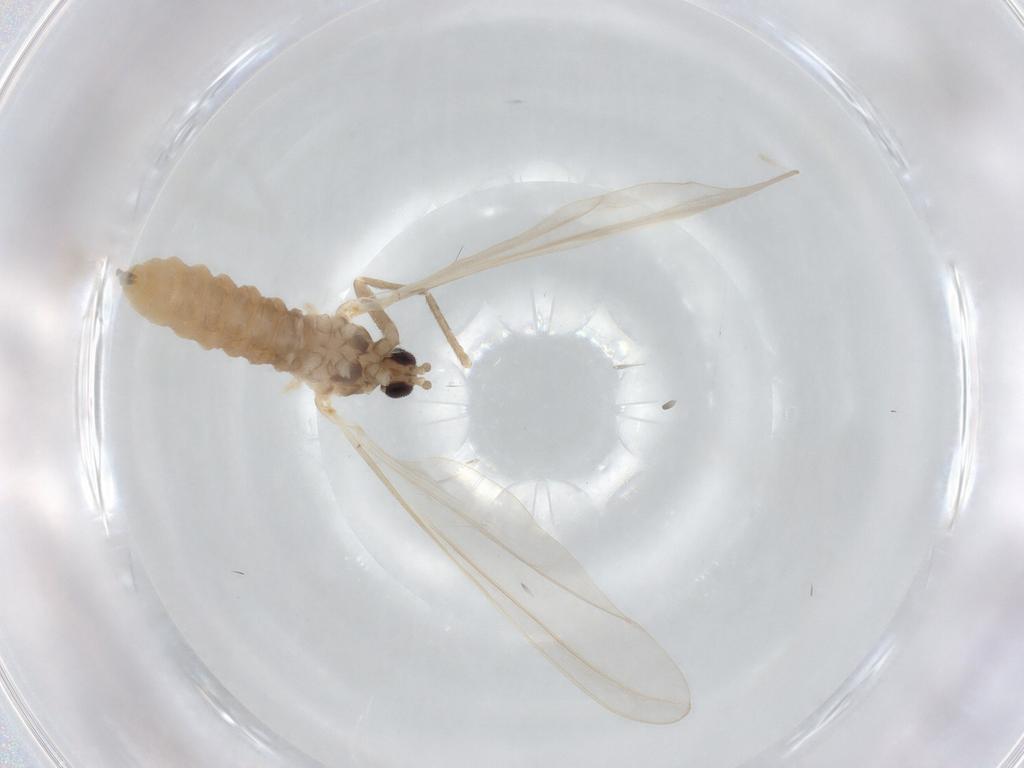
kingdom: Animalia
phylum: Arthropoda
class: Insecta
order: Diptera
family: Cecidomyiidae
